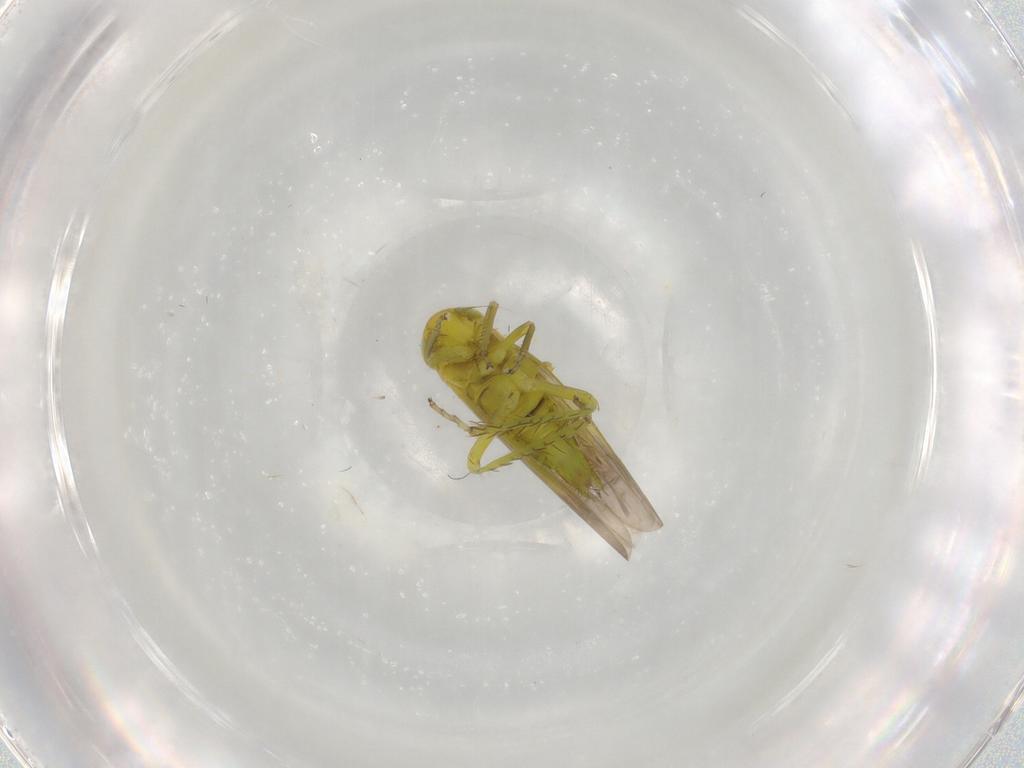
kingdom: Animalia
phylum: Arthropoda
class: Insecta
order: Hemiptera
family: Cicadellidae
